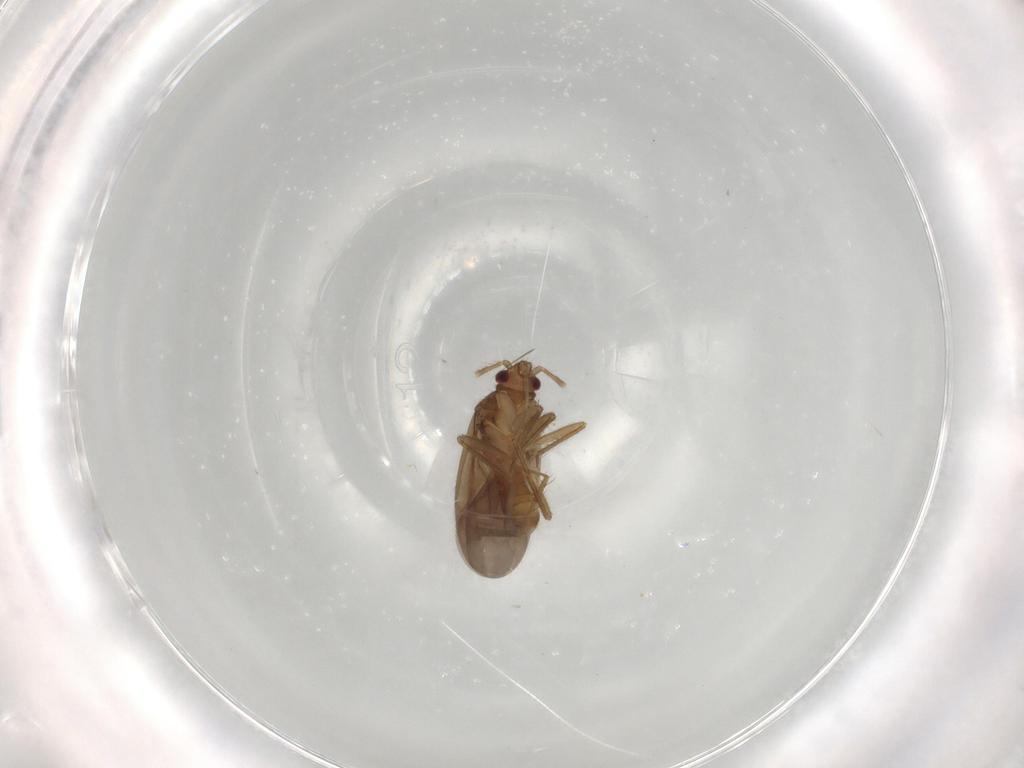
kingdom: Animalia
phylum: Arthropoda
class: Insecta
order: Hemiptera
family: Ceratocombidae
